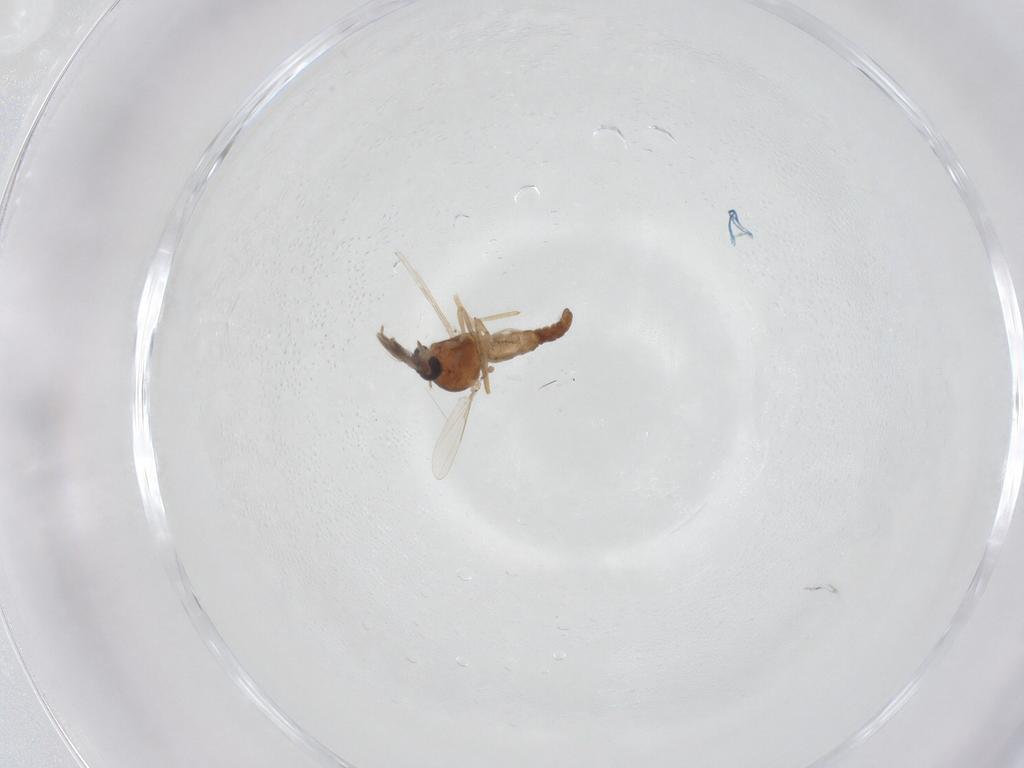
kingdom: Animalia
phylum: Arthropoda
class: Insecta
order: Diptera
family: Ceratopogonidae
